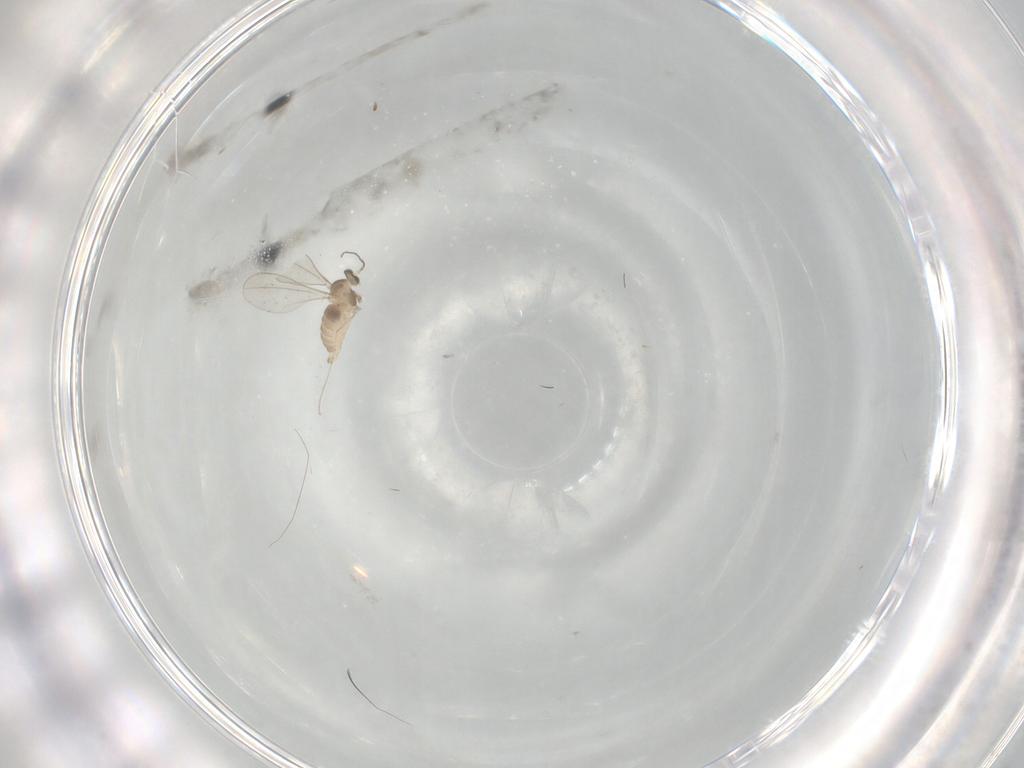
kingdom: Animalia
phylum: Arthropoda
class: Insecta
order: Diptera
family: Cecidomyiidae
